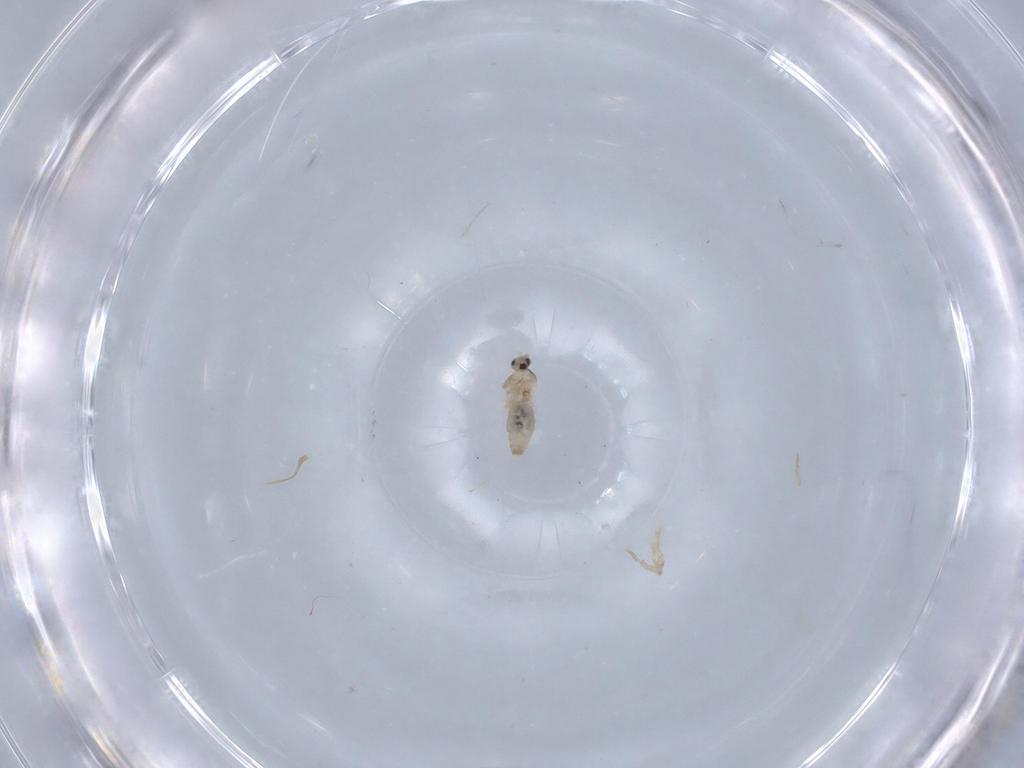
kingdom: Animalia
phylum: Arthropoda
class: Insecta
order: Diptera
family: Cecidomyiidae
